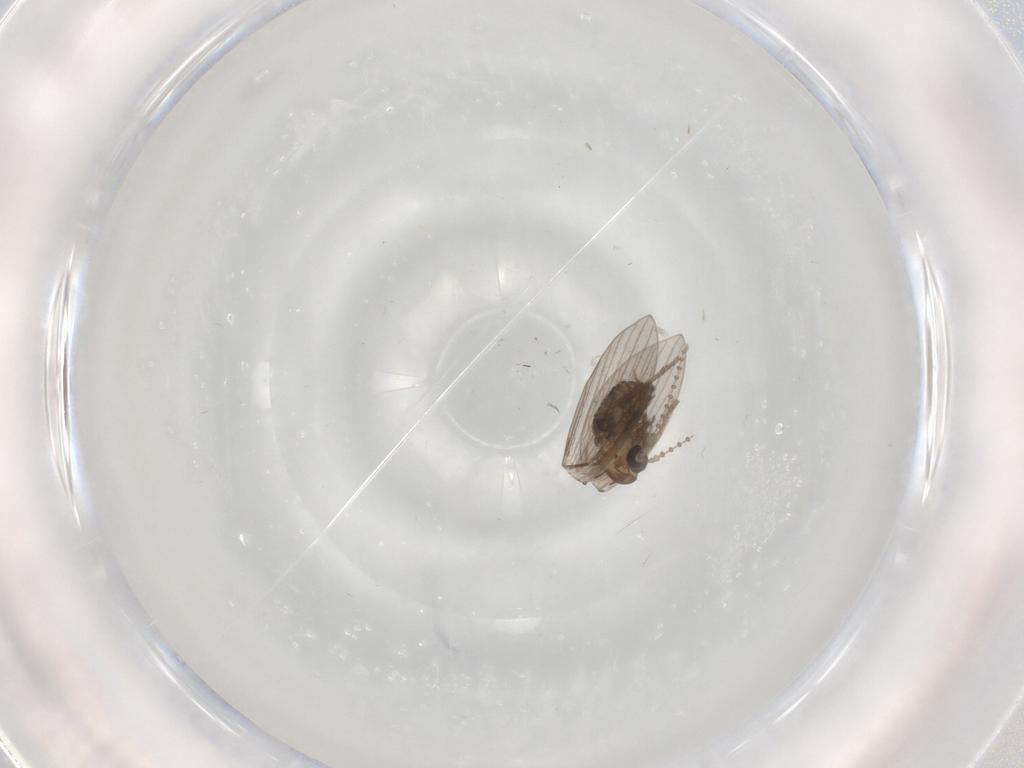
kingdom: Animalia
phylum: Arthropoda
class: Insecta
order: Diptera
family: Psychodidae
